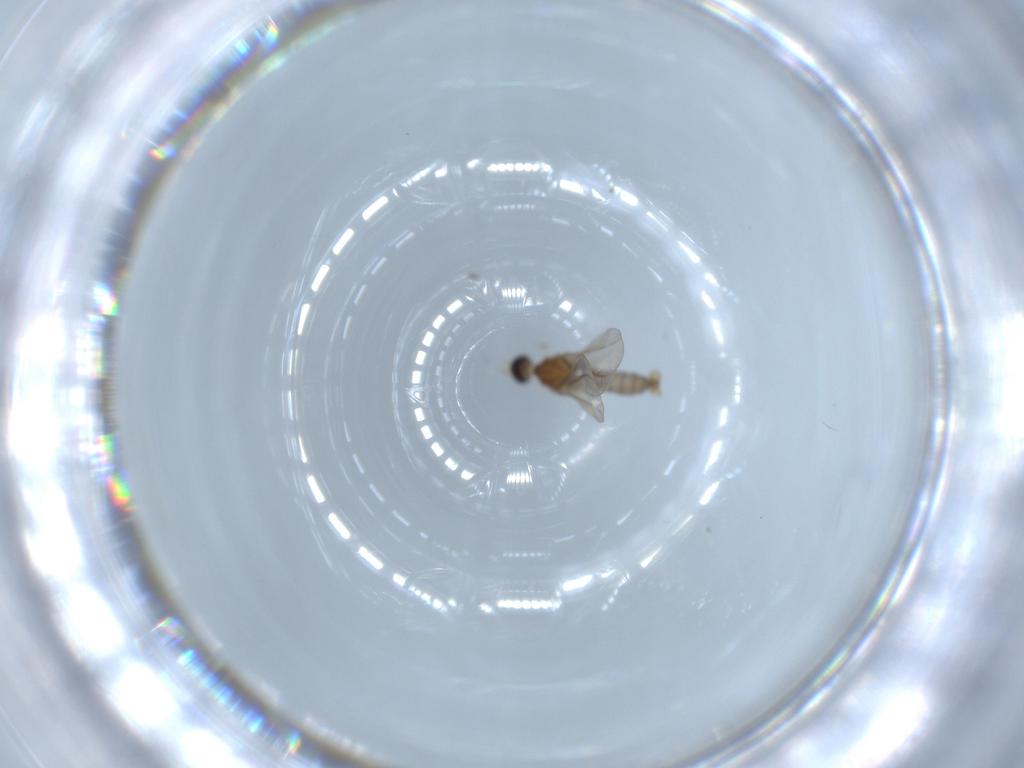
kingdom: Animalia
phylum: Arthropoda
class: Insecta
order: Diptera
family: Cecidomyiidae
